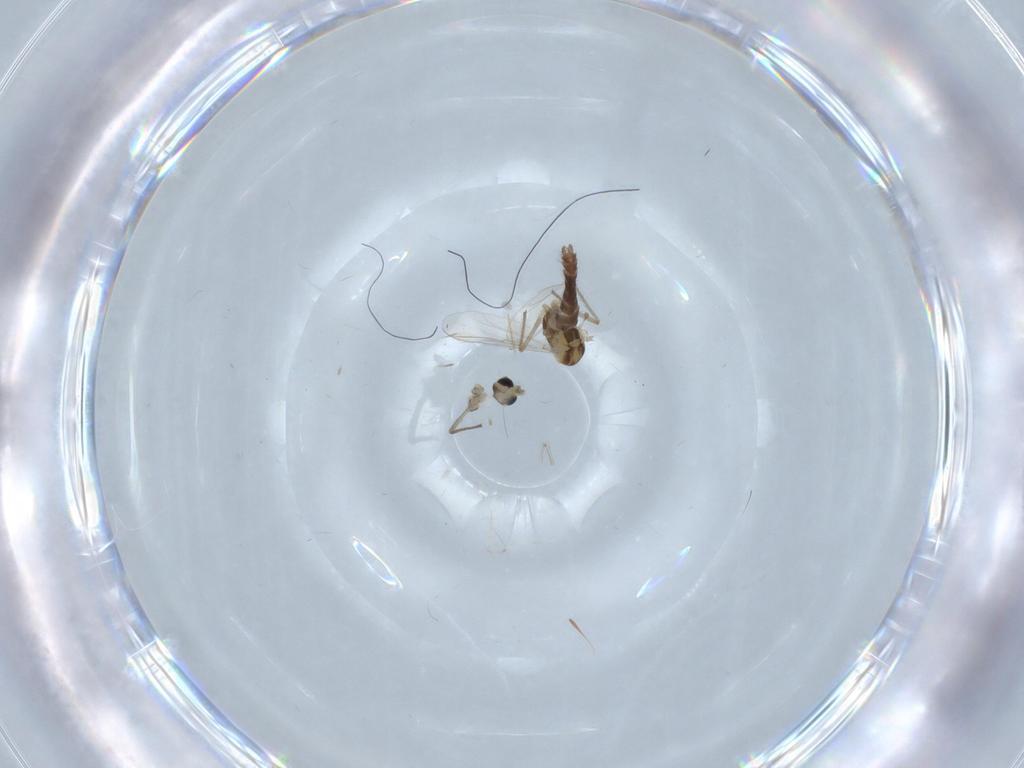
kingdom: Animalia
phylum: Arthropoda
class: Insecta
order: Diptera
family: Chironomidae
